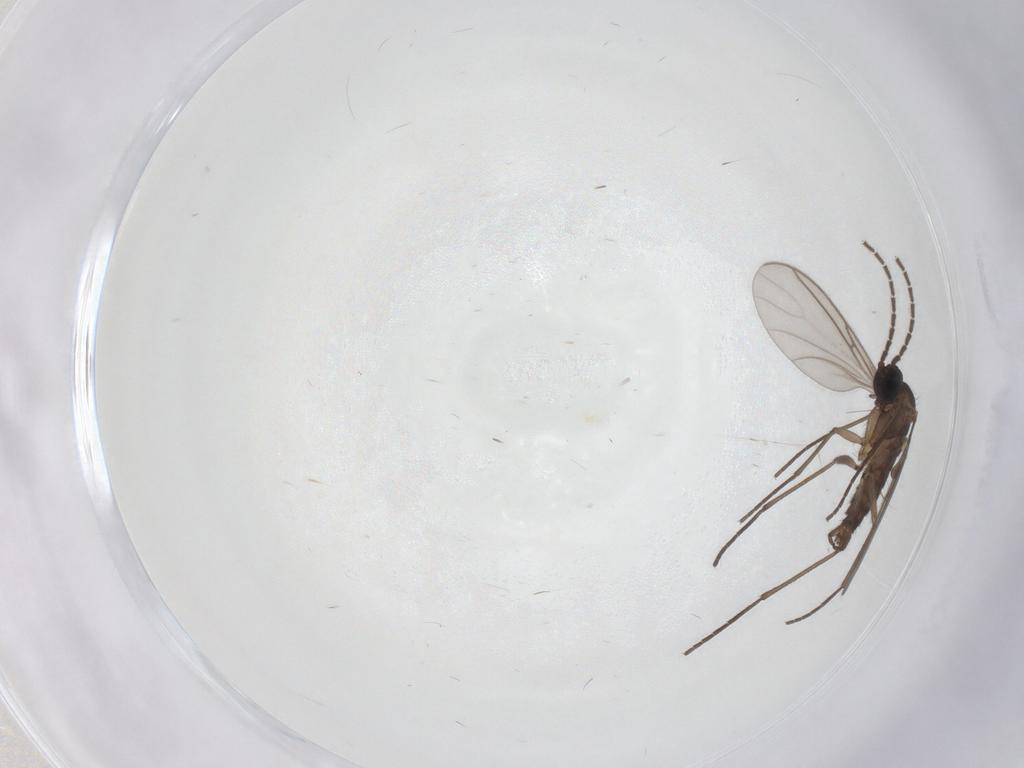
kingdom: Animalia
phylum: Arthropoda
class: Insecta
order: Diptera
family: Sciaridae
